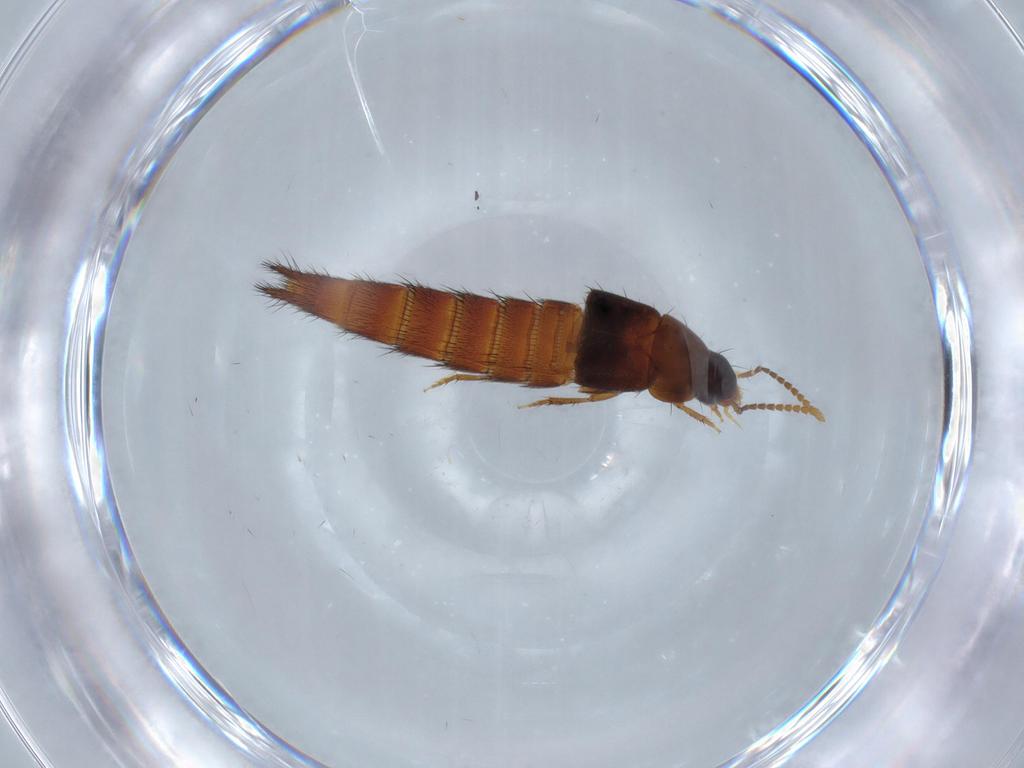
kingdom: Animalia
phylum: Arthropoda
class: Insecta
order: Coleoptera
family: Staphylinidae
